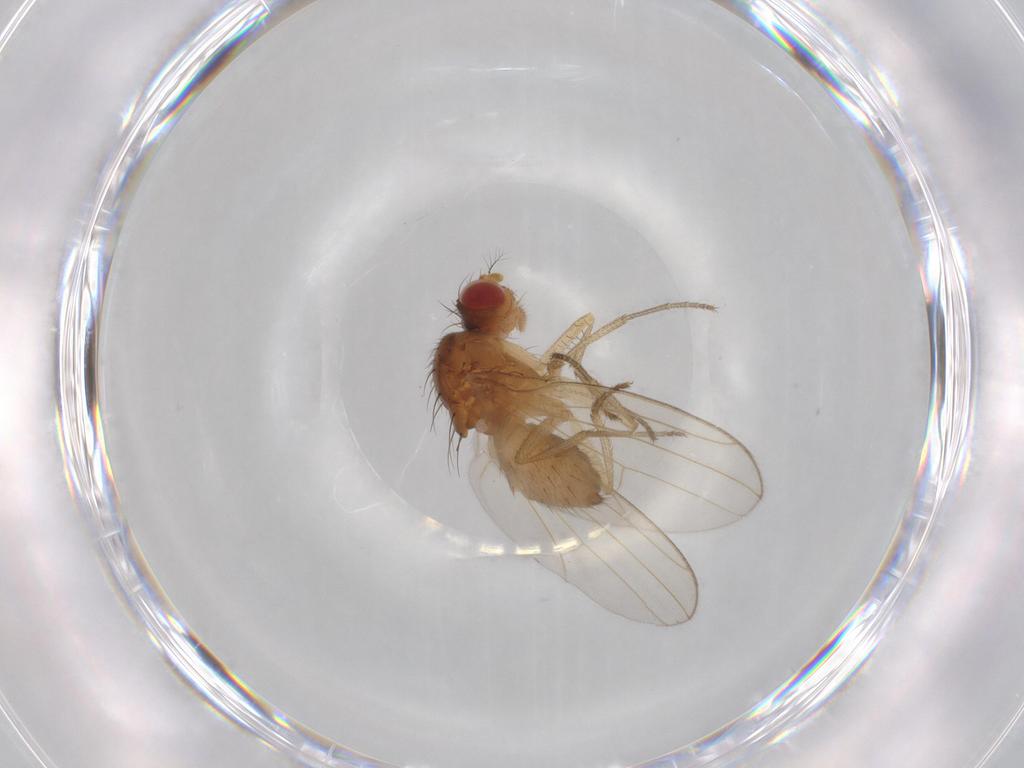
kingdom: Animalia
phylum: Arthropoda
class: Insecta
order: Diptera
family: Drosophilidae
